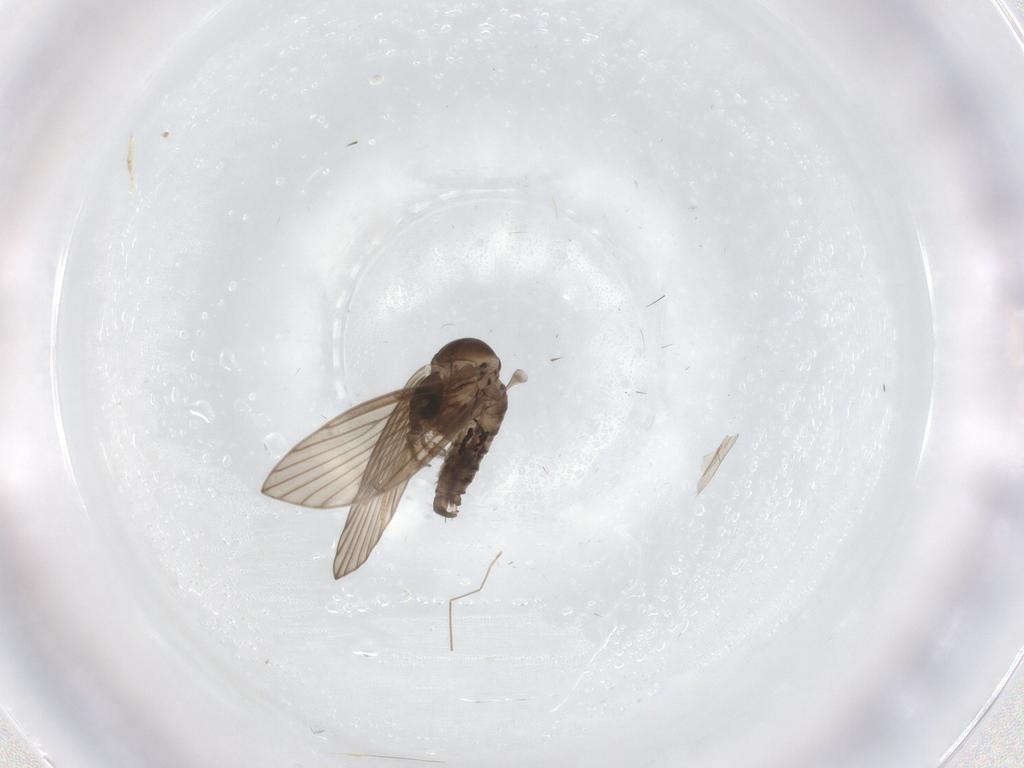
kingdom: Animalia
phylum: Arthropoda
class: Insecta
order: Diptera
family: Psychodidae
